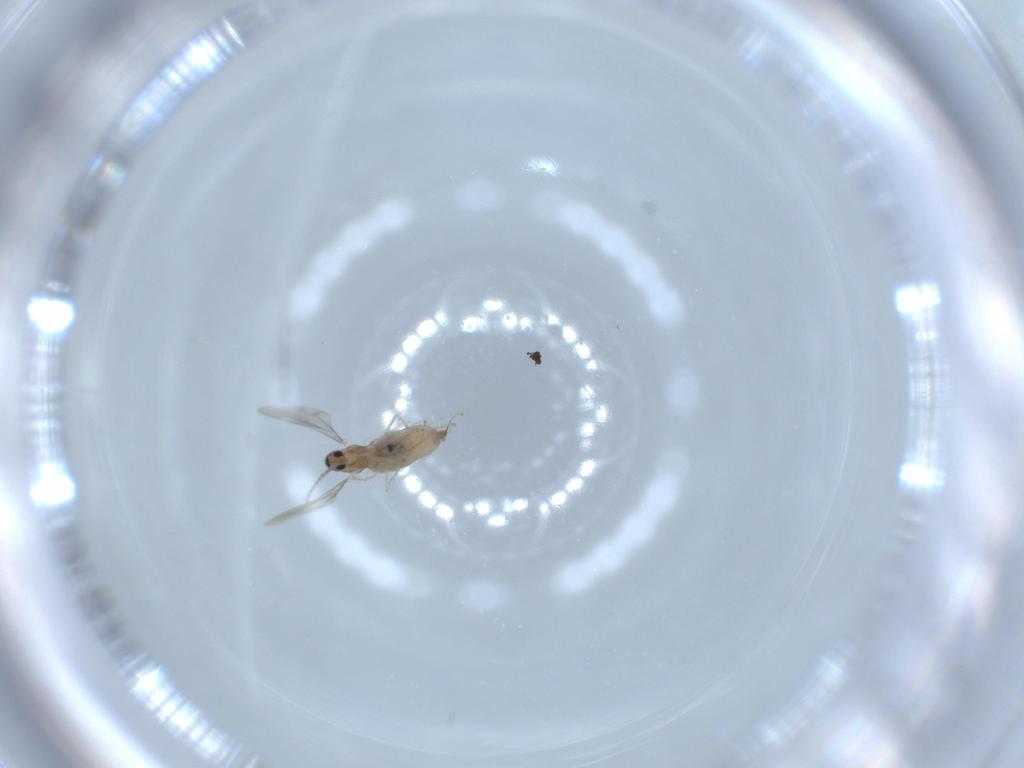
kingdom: Animalia
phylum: Arthropoda
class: Insecta
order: Diptera
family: Cecidomyiidae
